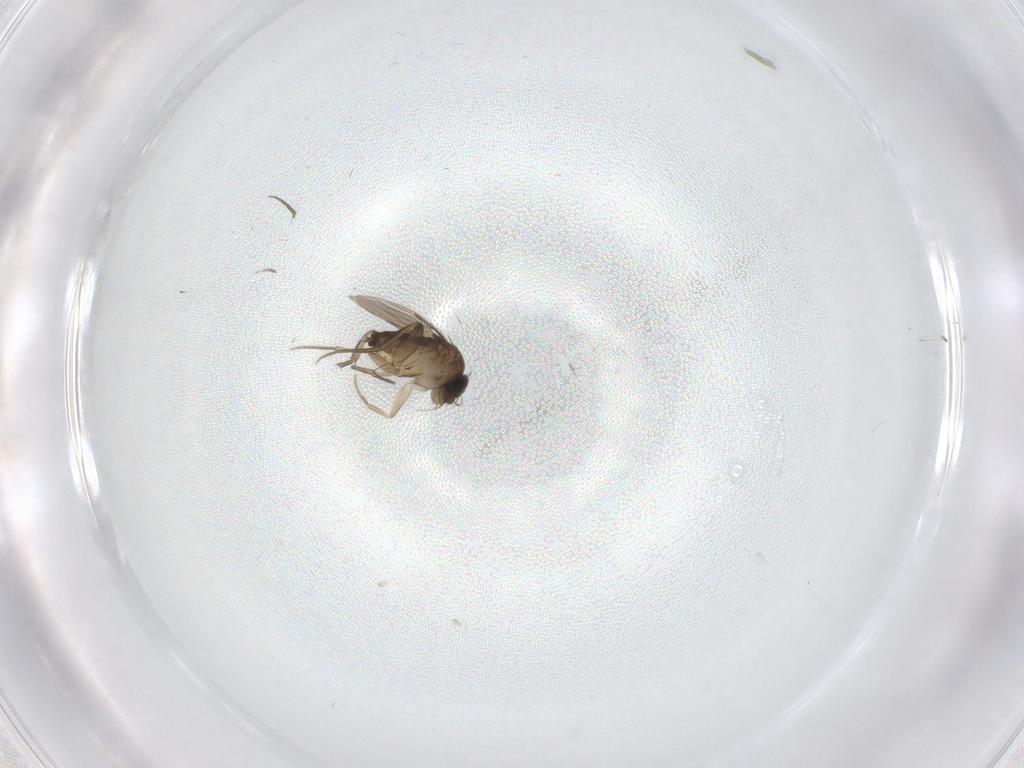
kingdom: Animalia
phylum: Arthropoda
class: Insecta
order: Diptera
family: Phoridae
